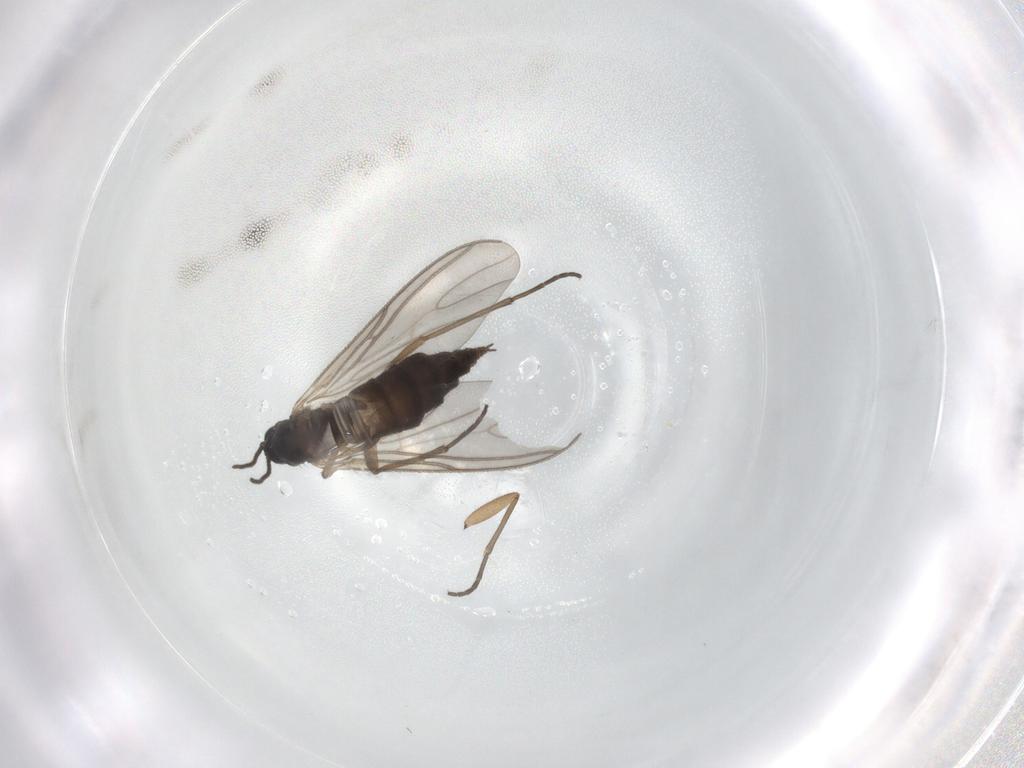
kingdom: Animalia
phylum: Arthropoda
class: Insecta
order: Diptera
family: Sciaridae
